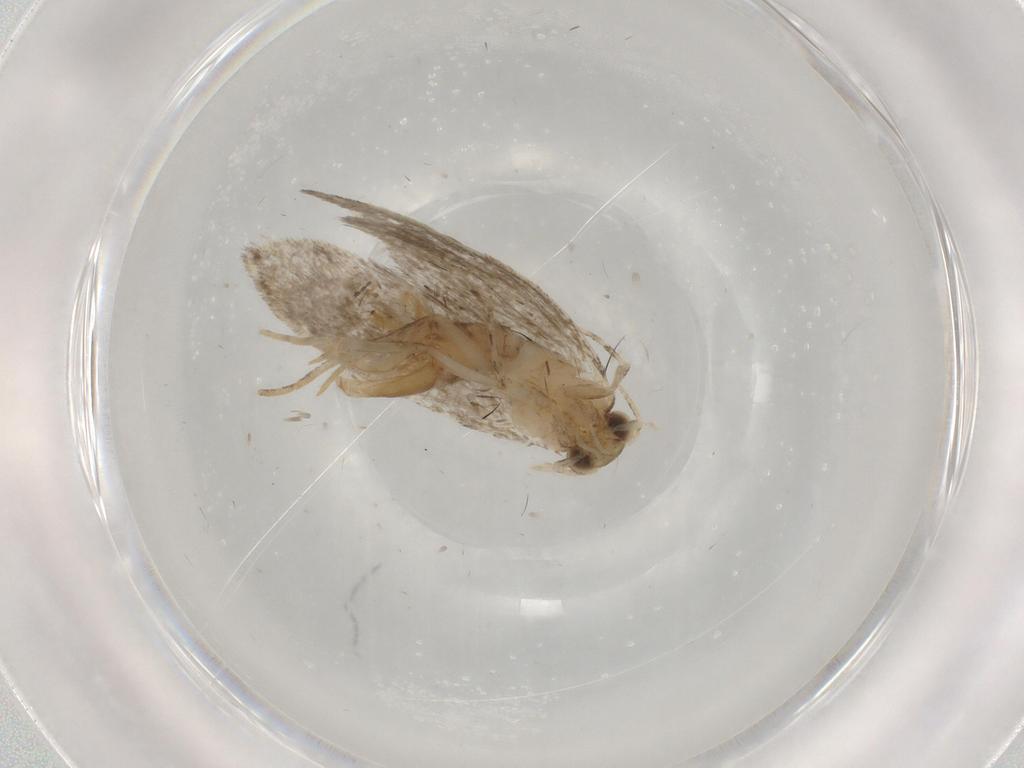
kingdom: Animalia
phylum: Arthropoda
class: Insecta
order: Lepidoptera
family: Tineidae
